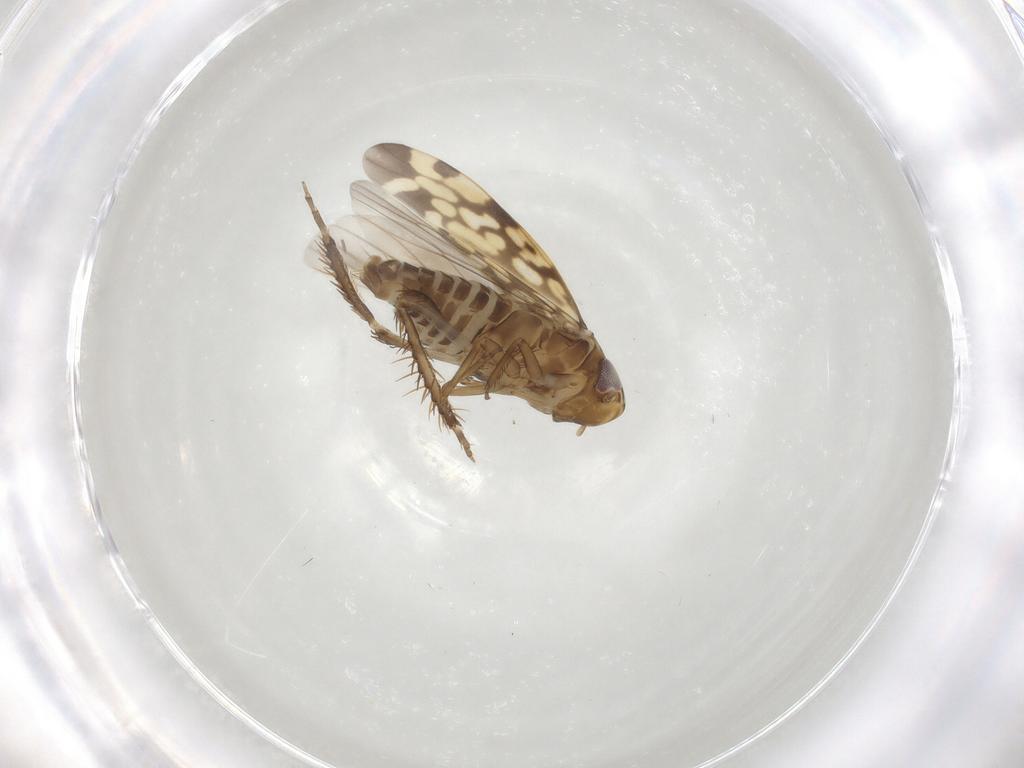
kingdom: Animalia
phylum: Arthropoda
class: Insecta
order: Hemiptera
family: Cicadellidae
